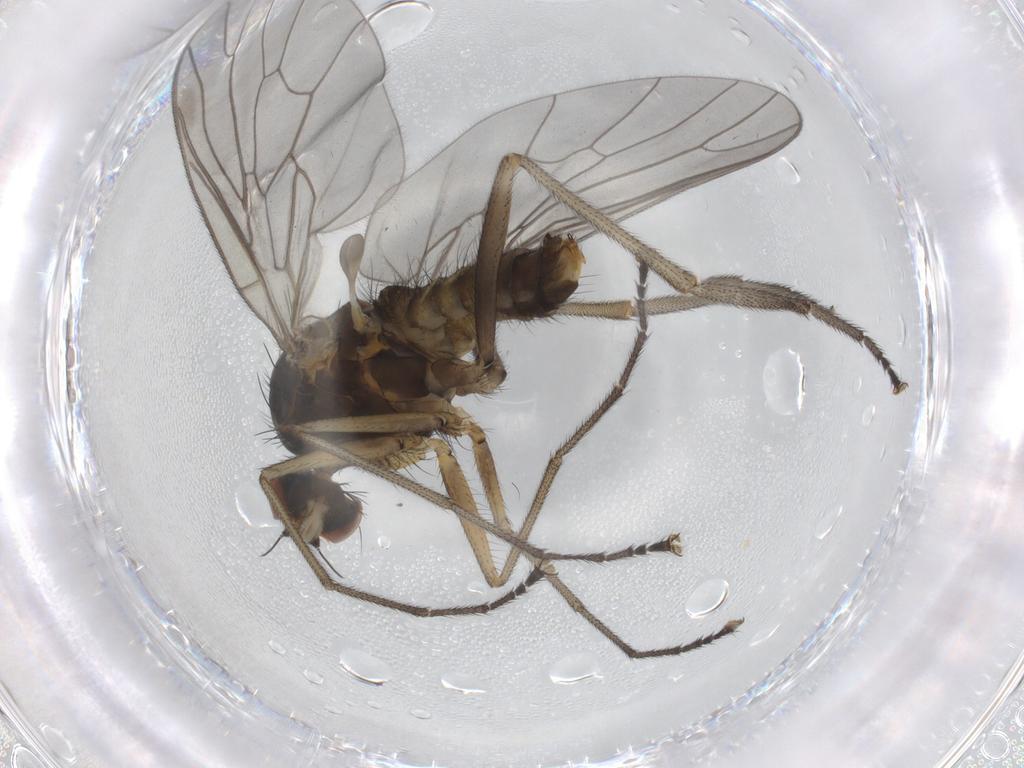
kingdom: Animalia
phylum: Arthropoda
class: Insecta
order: Diptera
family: Brachystomatidae
